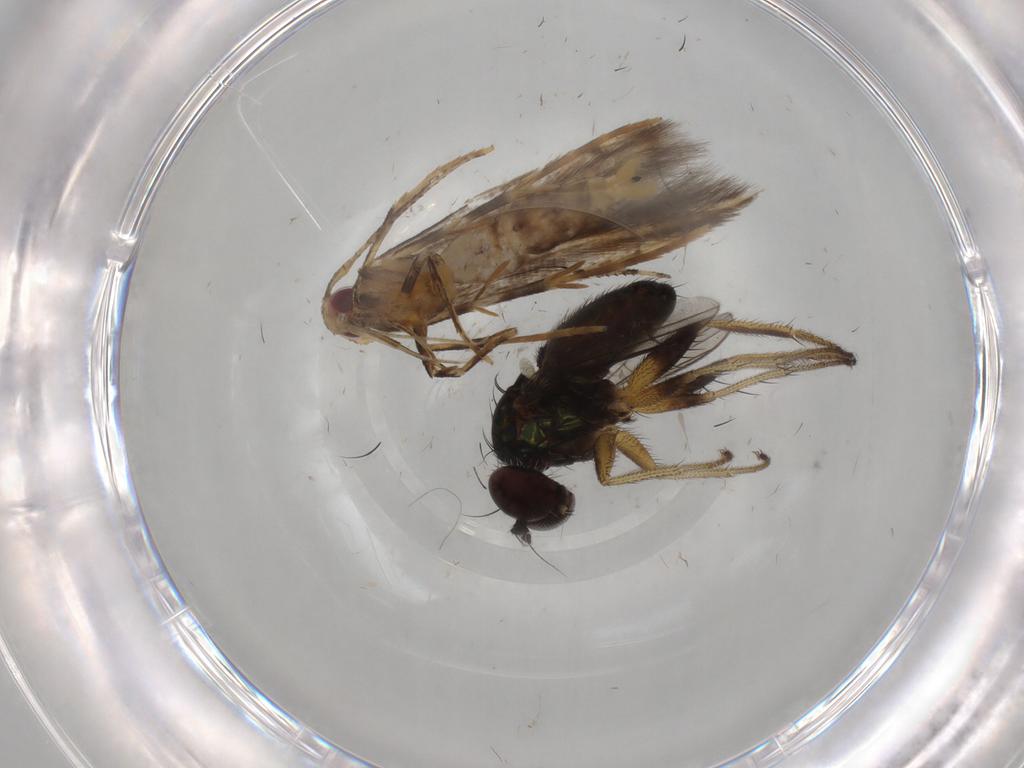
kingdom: Animalia
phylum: Arthropoda
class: Insecta
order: Diptera
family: Dolichopodidae
